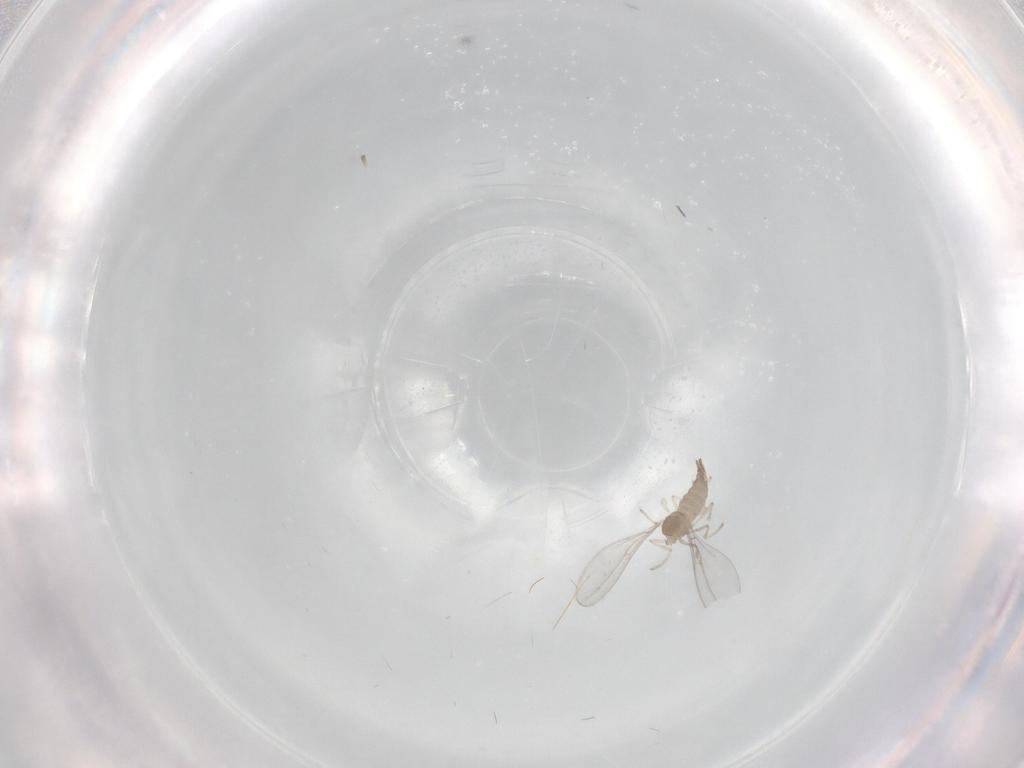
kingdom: Animalia
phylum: Arthropoda
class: Insecta
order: Diptera
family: Cecidomyiidae
